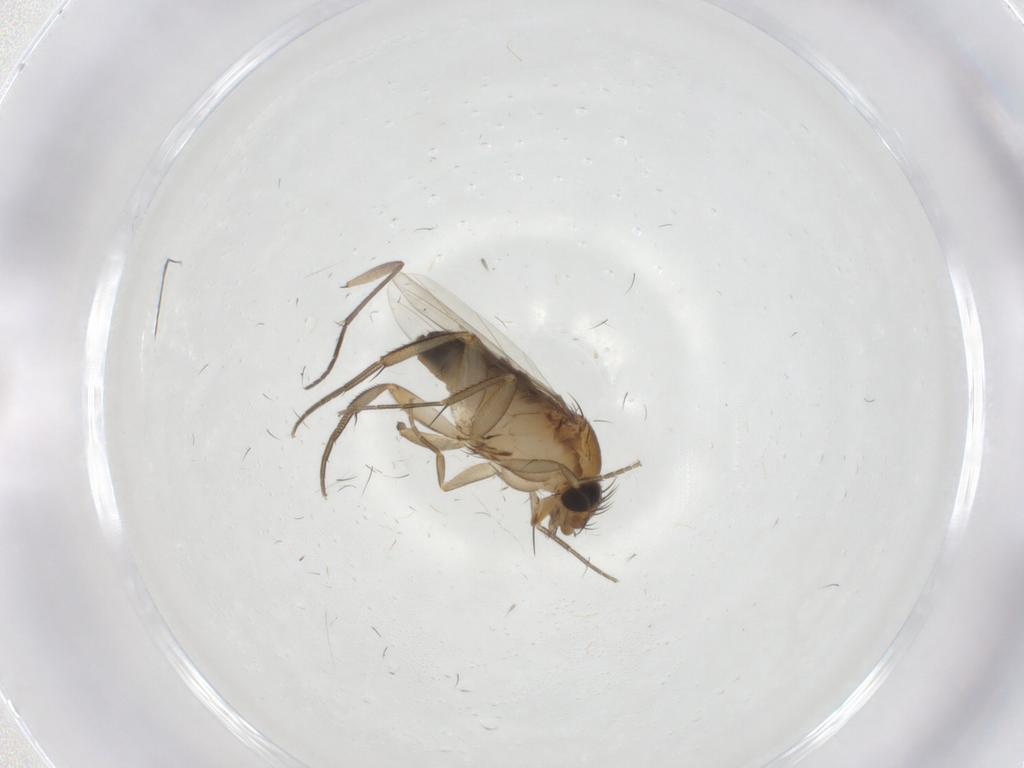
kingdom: Animalia
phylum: Arthropoda
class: Insecta
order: Diptera
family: Phoridae
